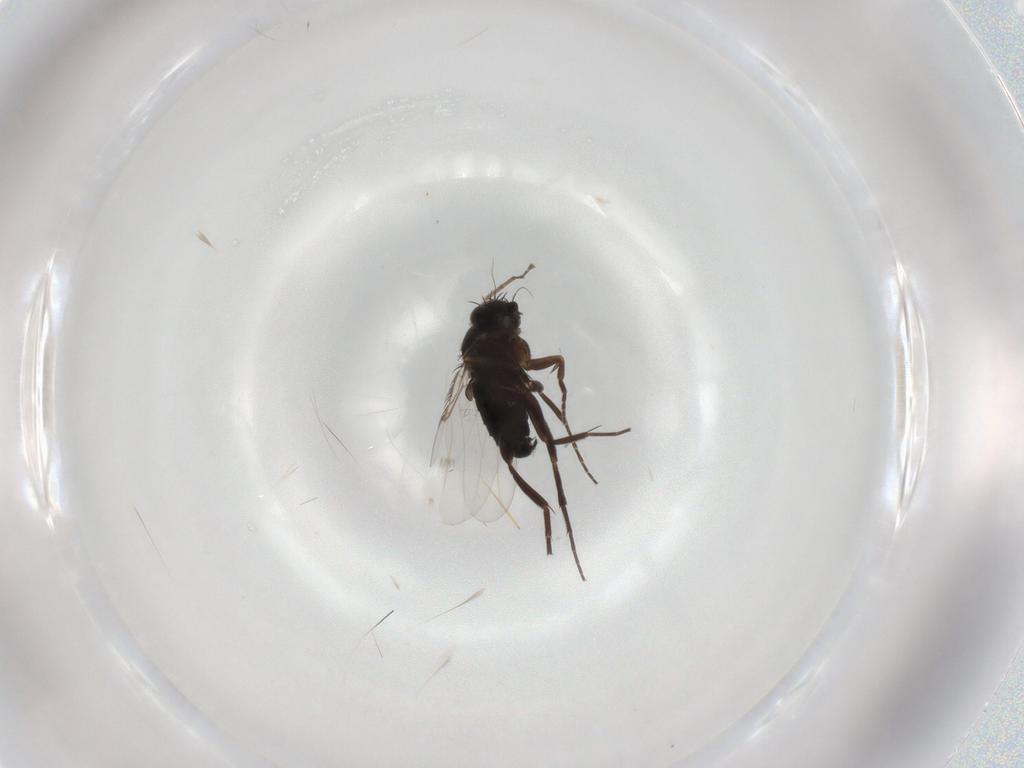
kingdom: Animalia
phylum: Arthropoda
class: Insecta
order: Diptera
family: Phoridae
